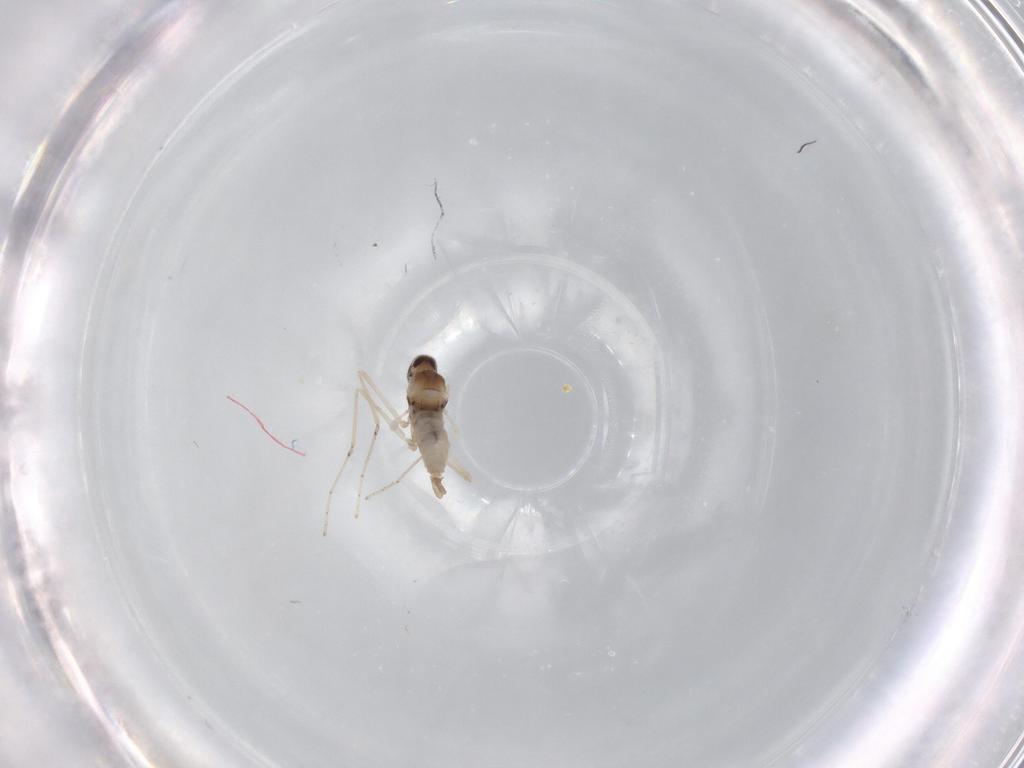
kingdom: Animalia
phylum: Arthropoda
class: Insecta
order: Diptera
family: Cecidomyiidae
